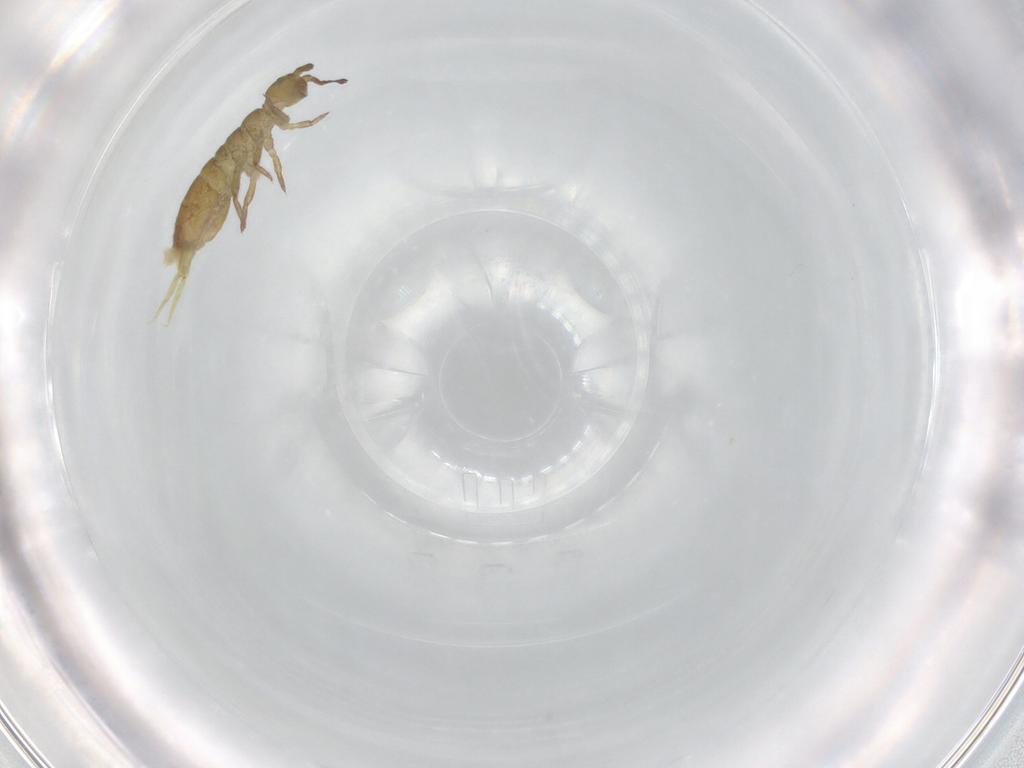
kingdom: Animalia
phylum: Arthropoda
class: Collembola
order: Entomobryomorpha
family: Isotomidae
